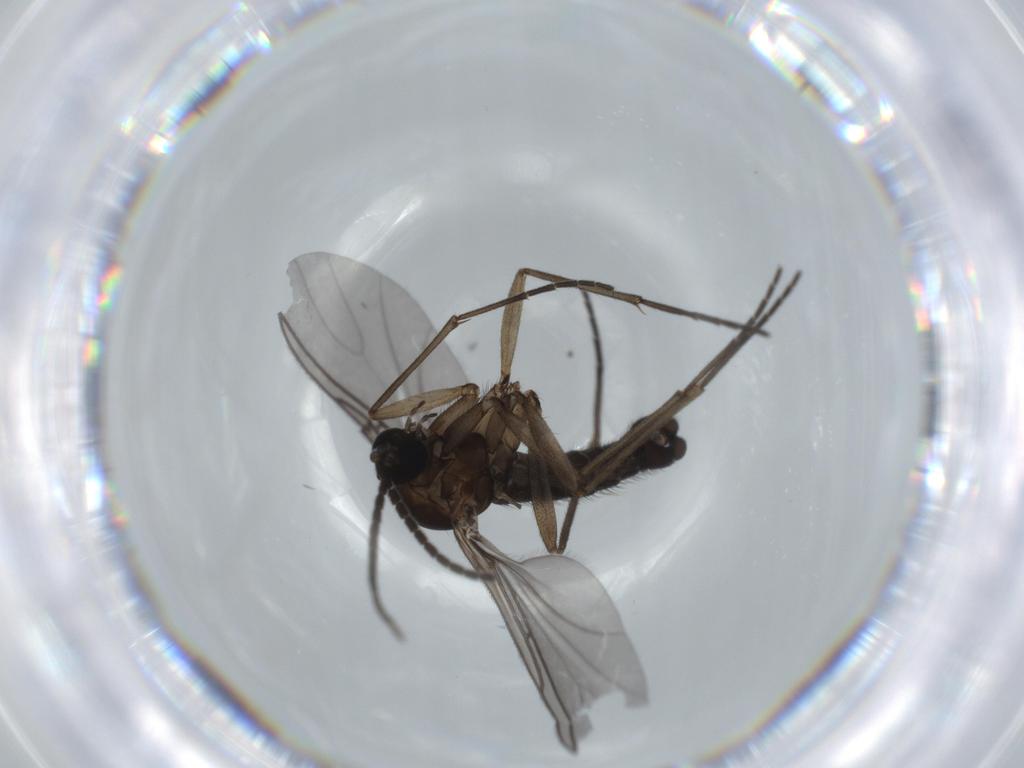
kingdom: Animalia
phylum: Arthropoda
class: Insecta
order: Diptera
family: Sciaridae
